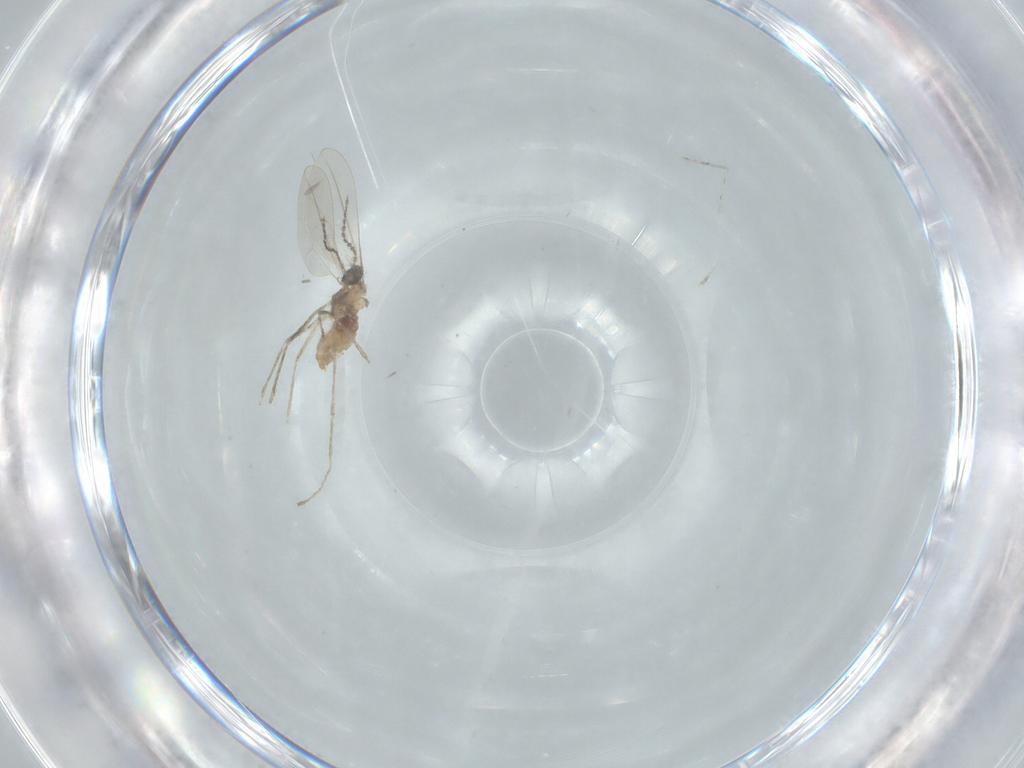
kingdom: Animalia
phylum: Arthropoda
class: Insecta
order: Diptera
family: Cecidomyiidae
